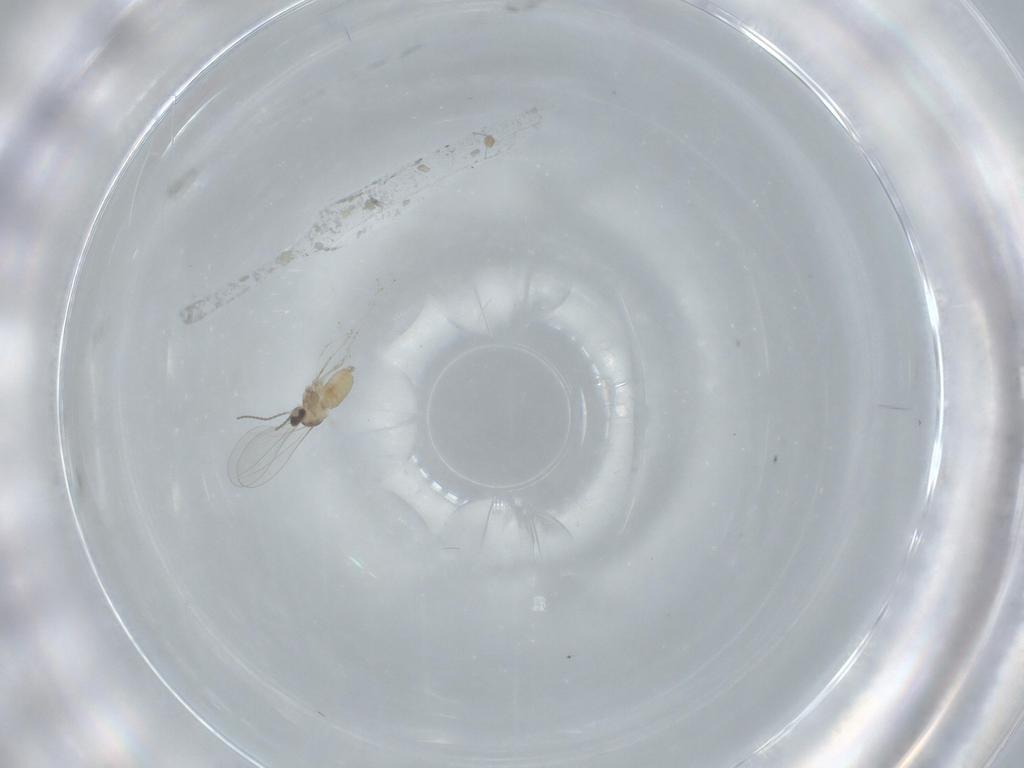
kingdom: Animalia
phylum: Arthropoda
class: Insecta
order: Diptera
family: Cecidomyiidae
